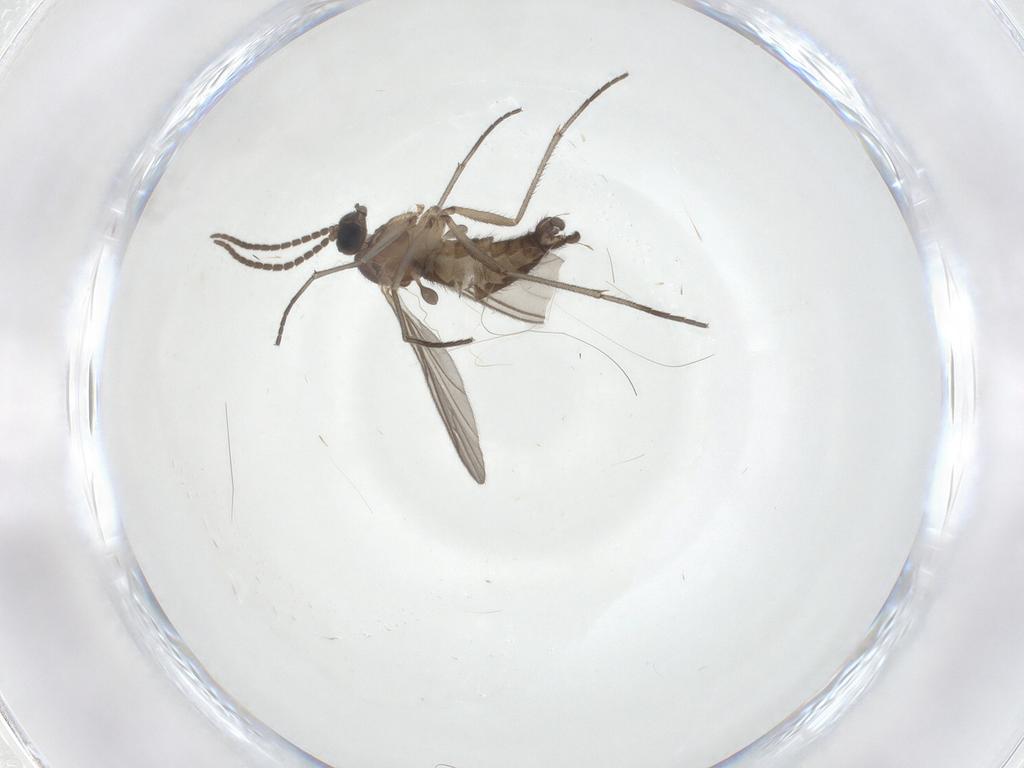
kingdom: Animalia
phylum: Arthropoda
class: Insecta
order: Diptera
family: Sciaridae
